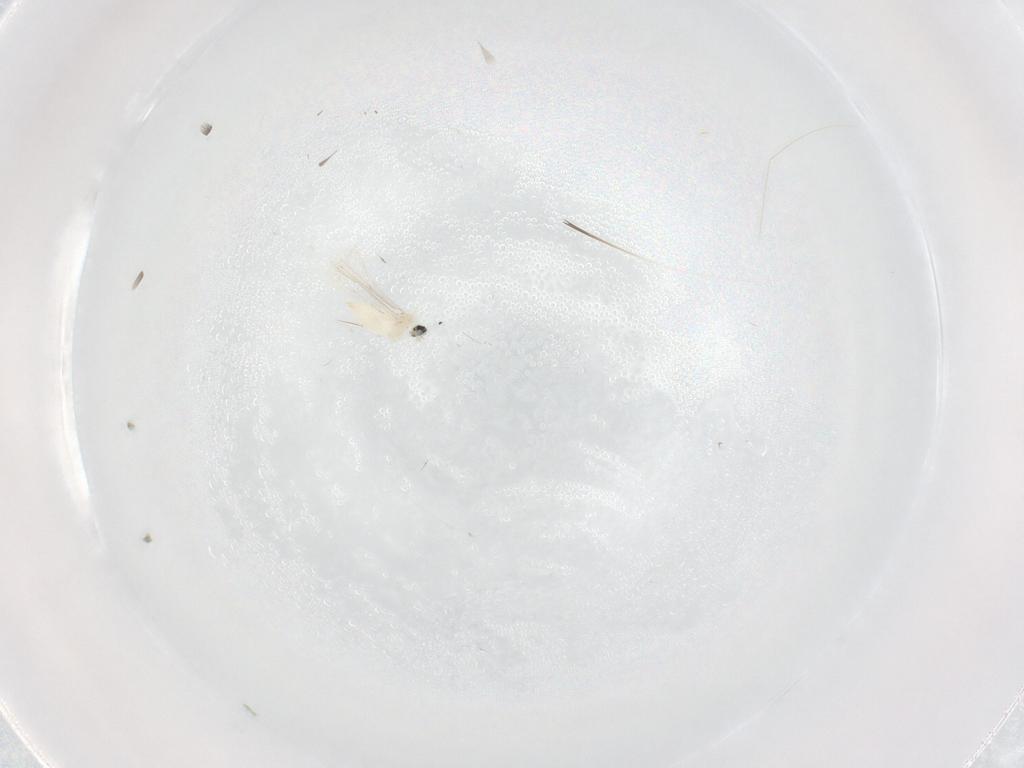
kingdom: Animalia
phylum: Arthropoda
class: Insecta
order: Diptera
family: Cecidomyiidae
